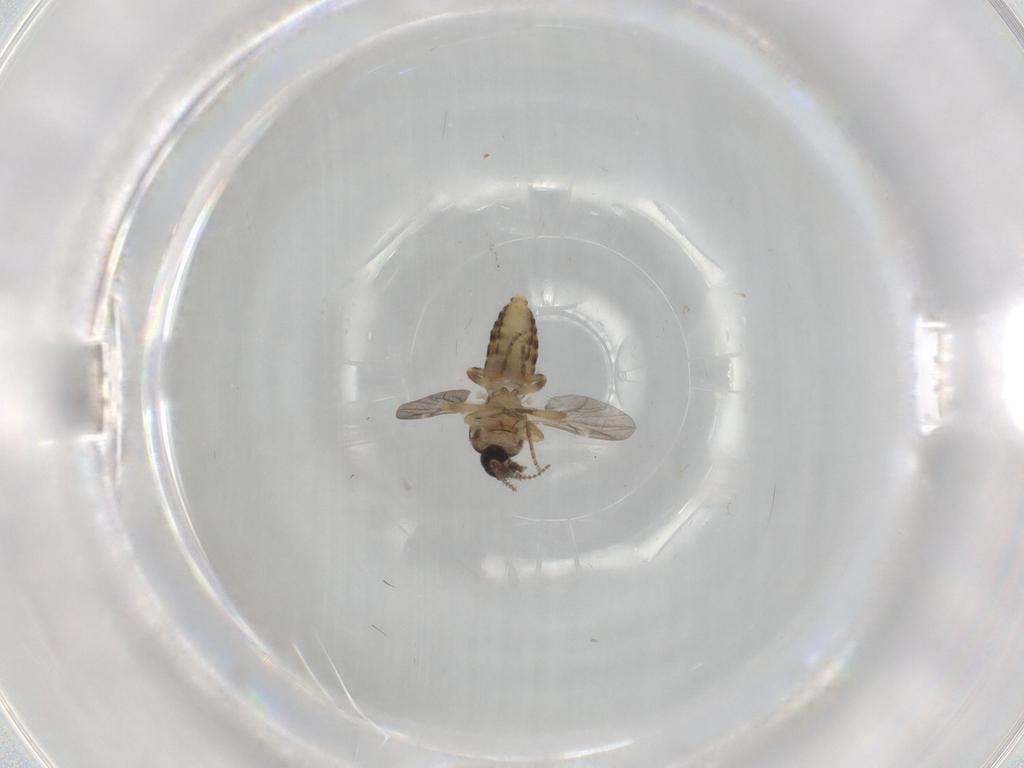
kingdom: Animalia
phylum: Arthropoda
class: Insecta
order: Diptera
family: Ceratopogonidae
